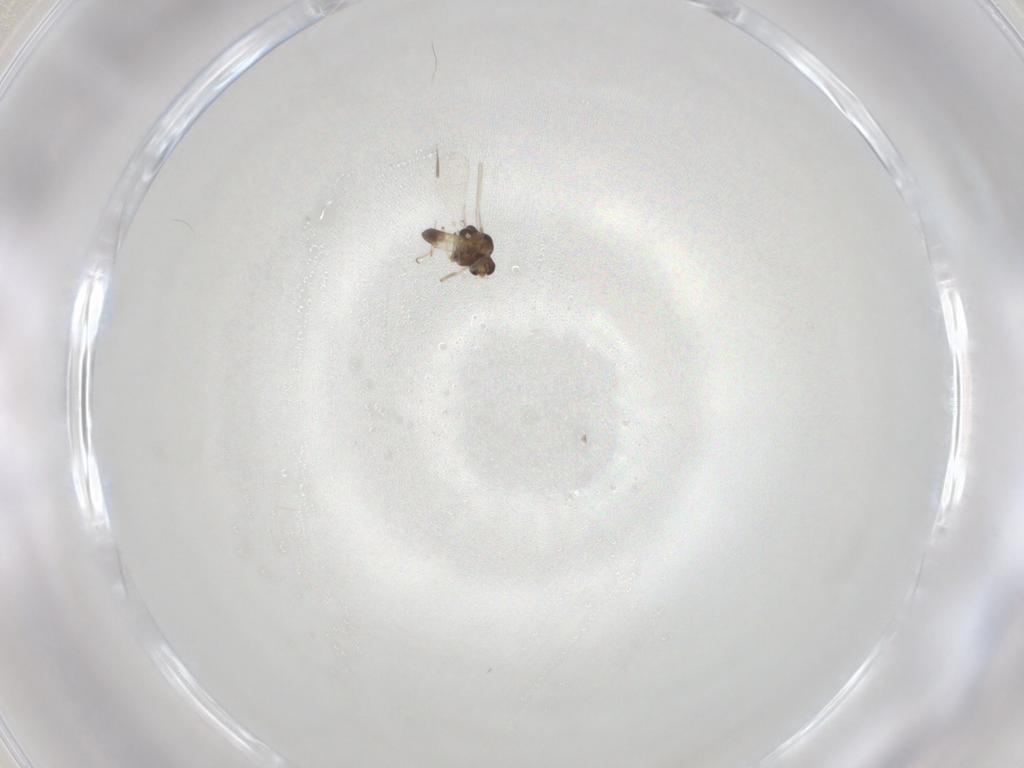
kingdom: Animalia
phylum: Arthropoda
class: Insecta
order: Diptera
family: Chironomidae
